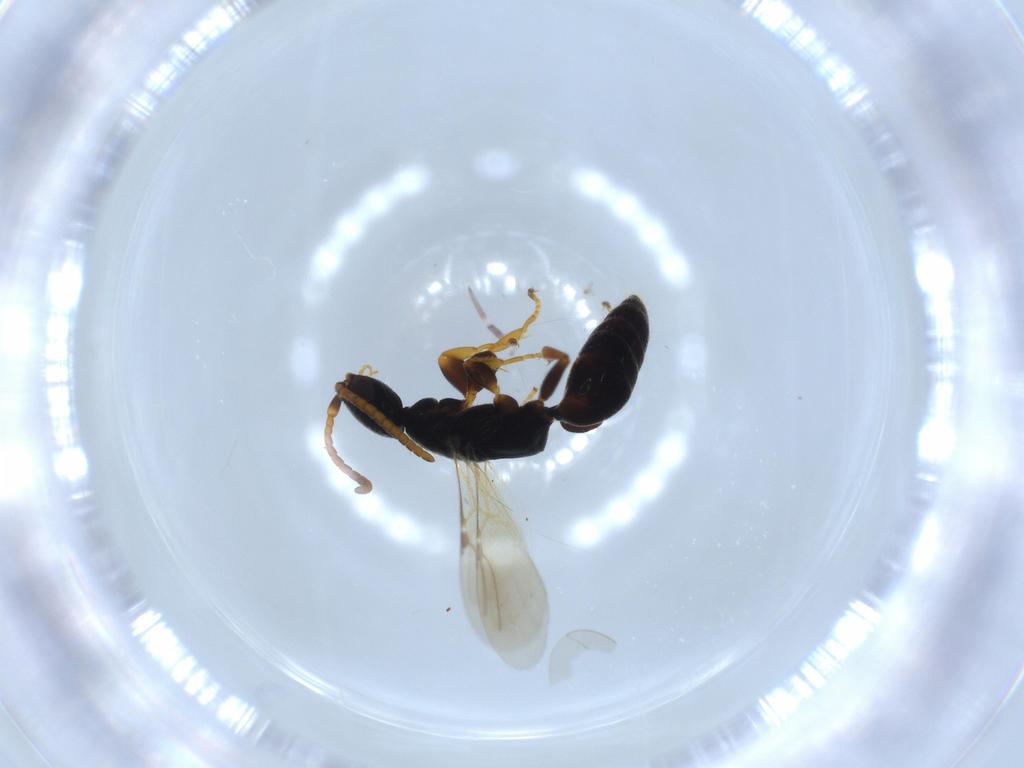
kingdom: Animalia
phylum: Arthropoda
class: Insecta
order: Hymenoptera
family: Bethylidae
